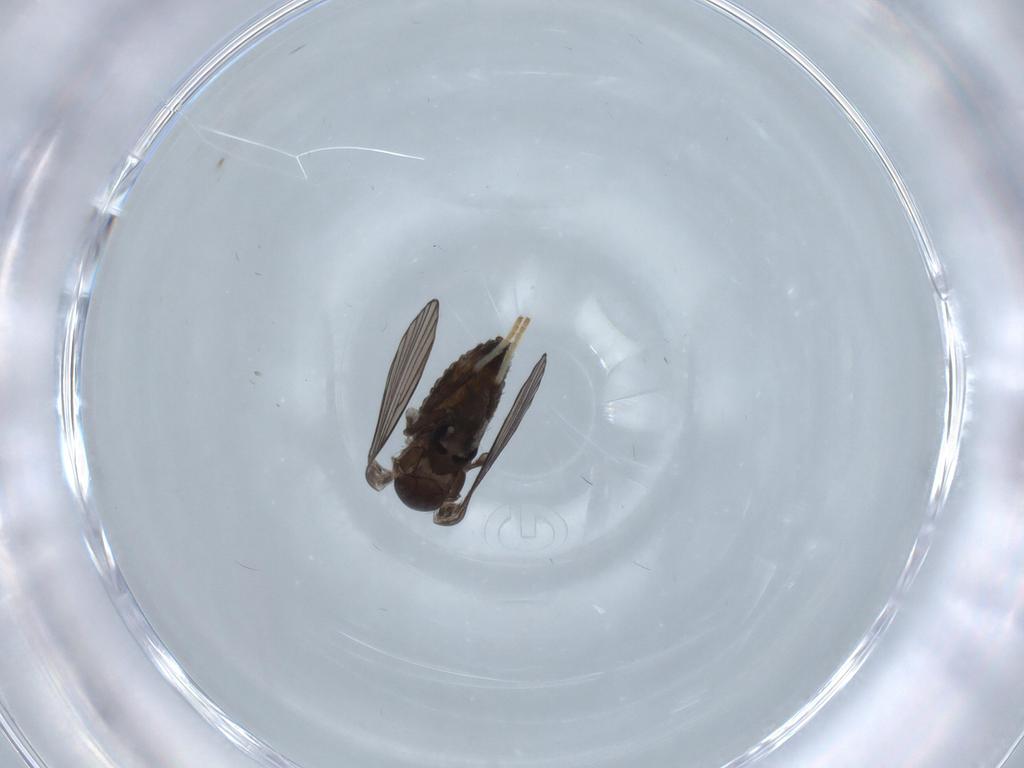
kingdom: Animalia
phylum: Arthropoda
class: Insecta
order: Diptera
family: Psychodidae
